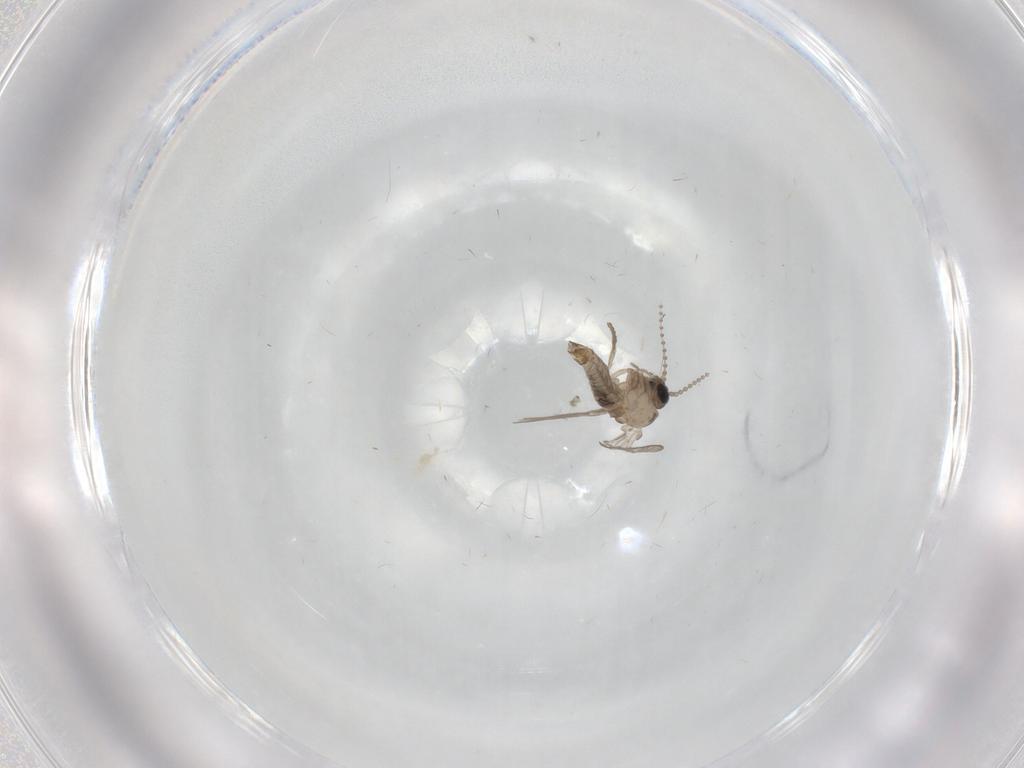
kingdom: Animalia
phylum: Arthropoda
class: Insecta
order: Diptera
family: Psychodidae
